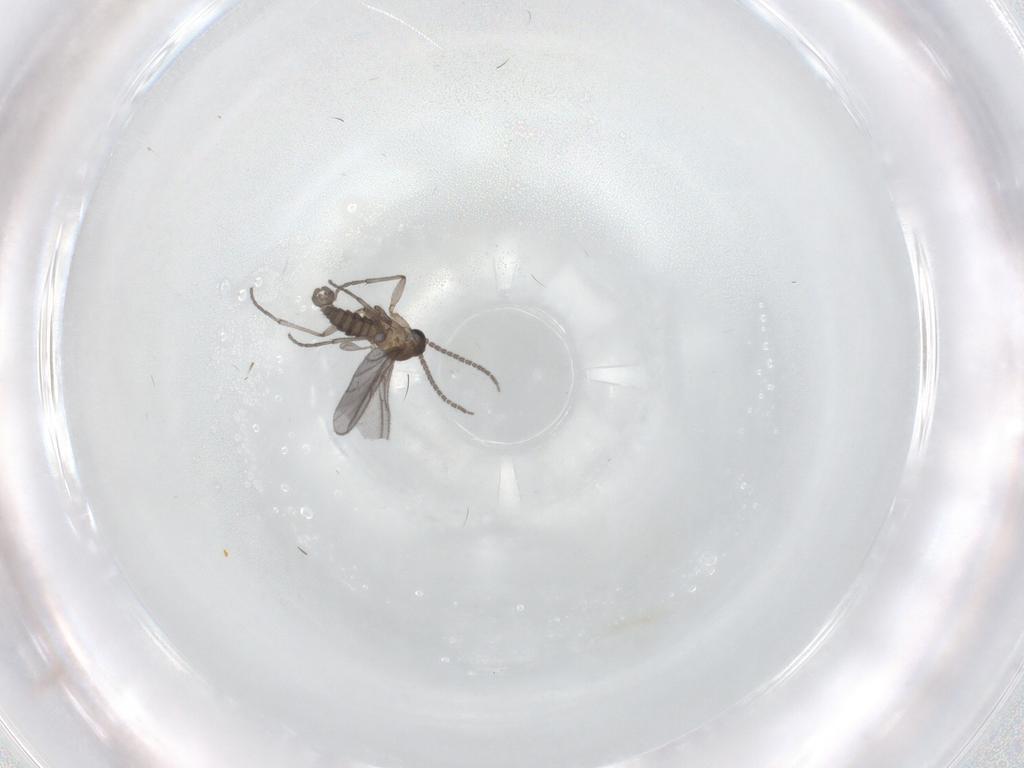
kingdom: Animalia
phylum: Arthropoda
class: Insecta
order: Diptera
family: Sciaridae
